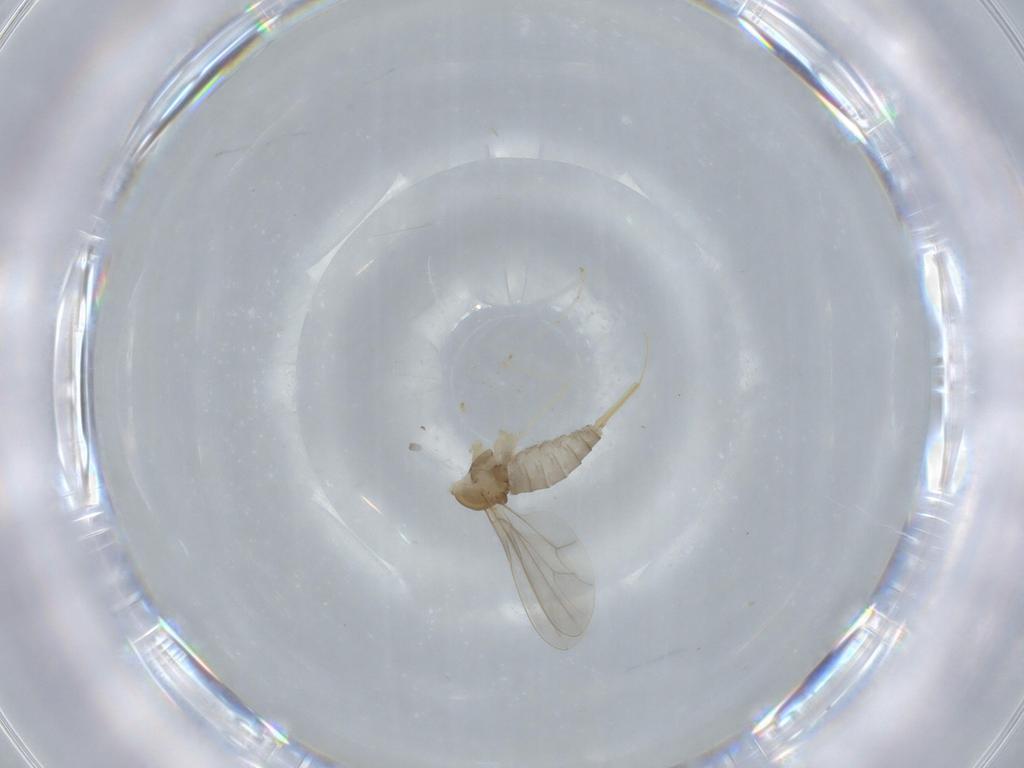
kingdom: Animalia
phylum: Arthropoda
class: Insecta
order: Diptera
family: Cecidomyiidae
